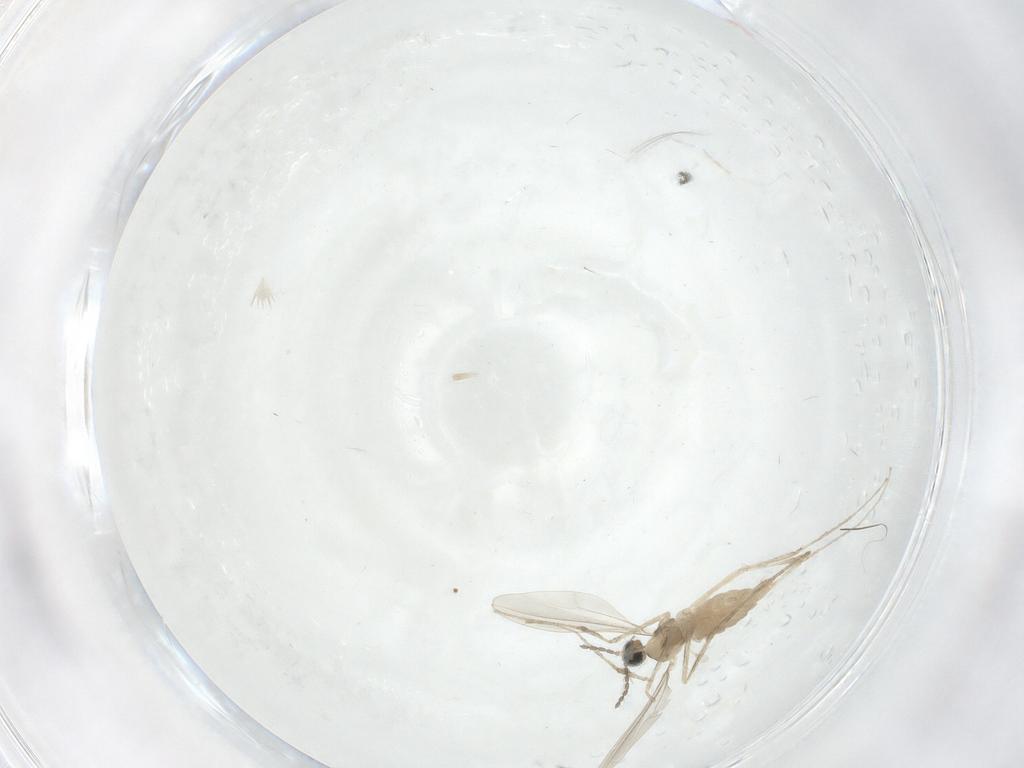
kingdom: Animalia
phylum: Arthropoda
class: Insecta
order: Diptera
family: Cecidomyiidae
